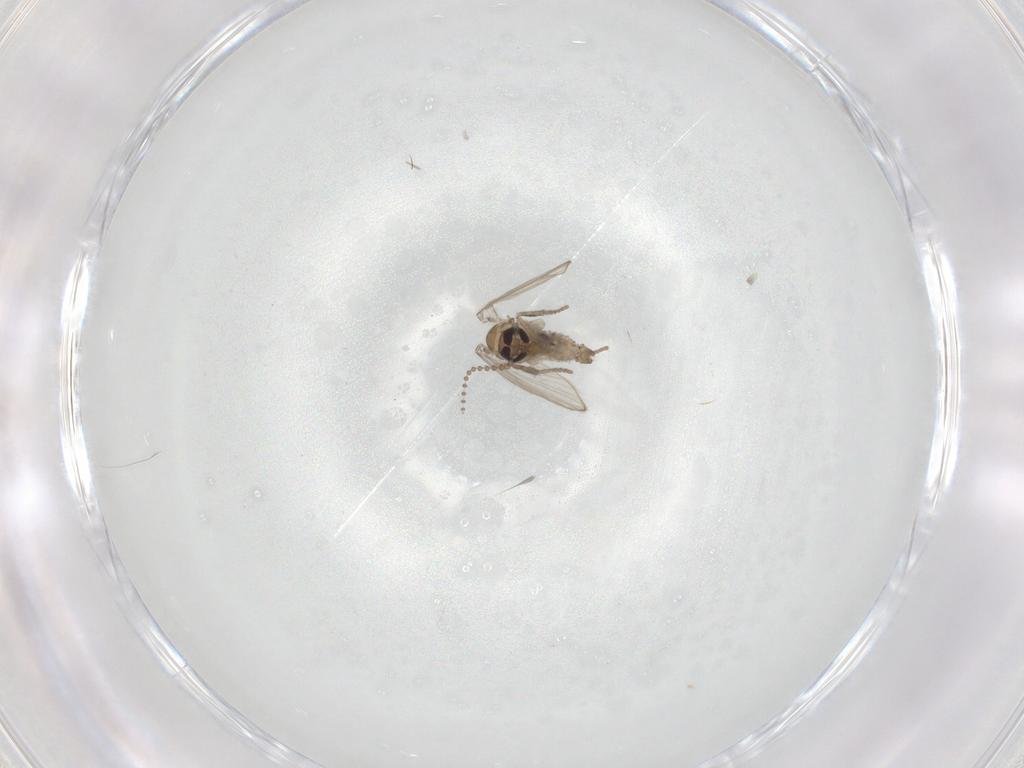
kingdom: Animalia
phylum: Arthropoda
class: Insecta
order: Diptera
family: Psychodidae
